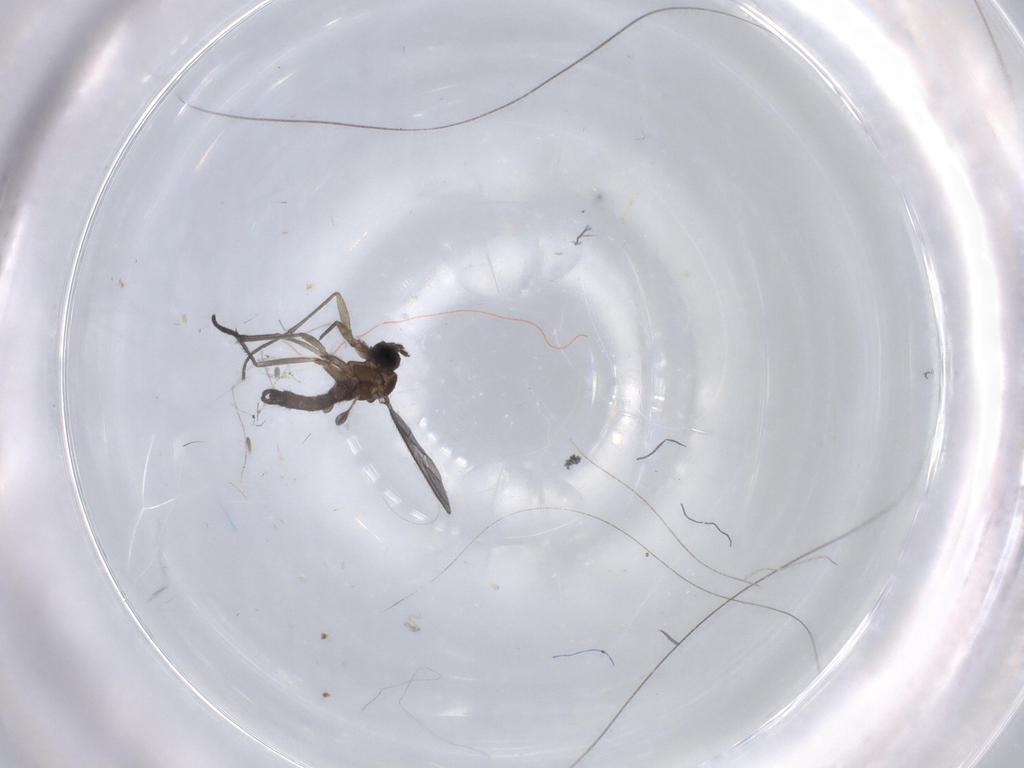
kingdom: Animalia
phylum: Arthropoda
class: Insecta
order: Diptera
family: Sciaridae
